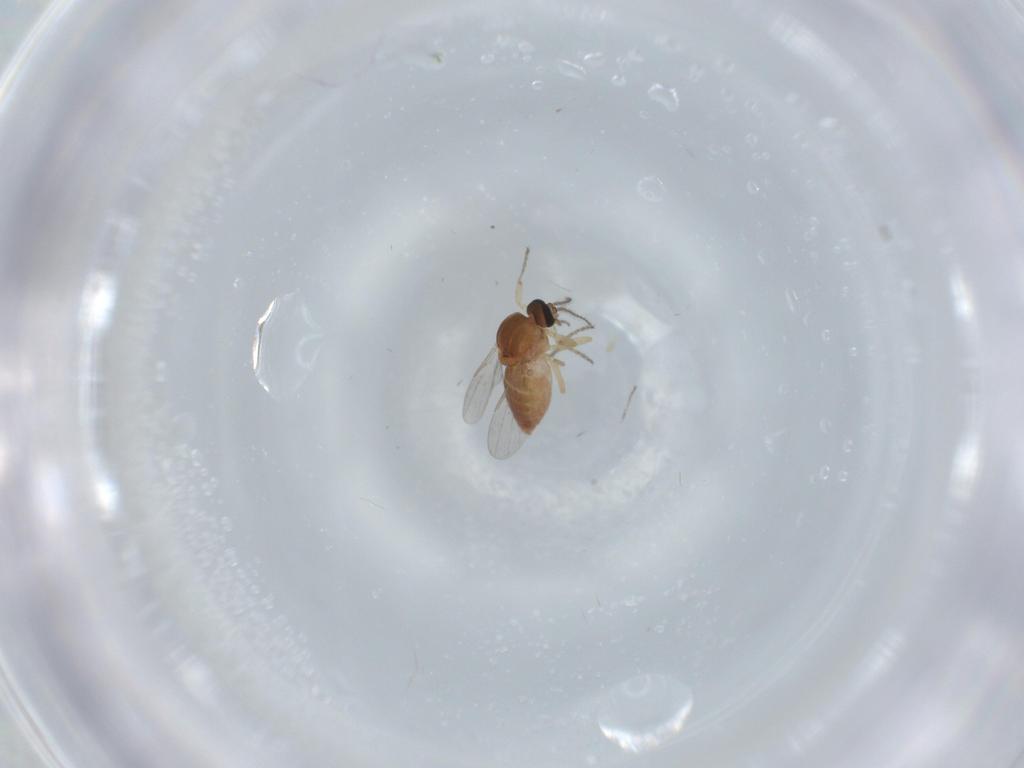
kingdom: Animalia
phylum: Arthropoda
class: Insecta
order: Diptera
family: Ceratopogonidae
